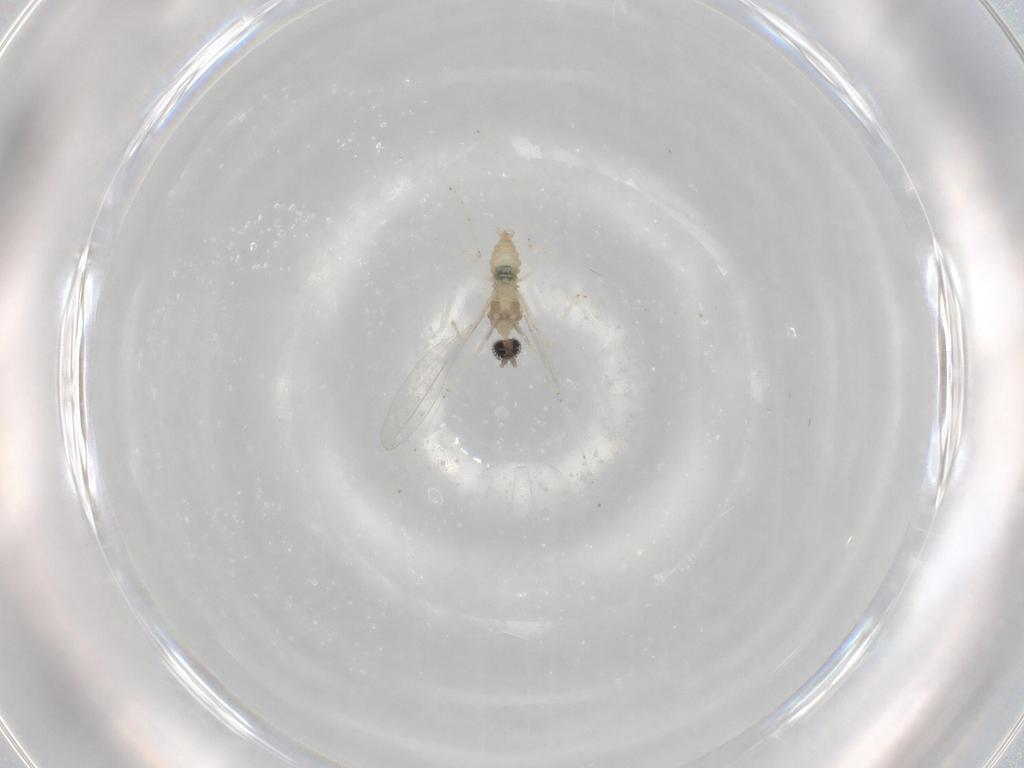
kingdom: Animalia
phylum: Arthropoda
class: Insecta
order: Diptera
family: Cecidomyiidae
